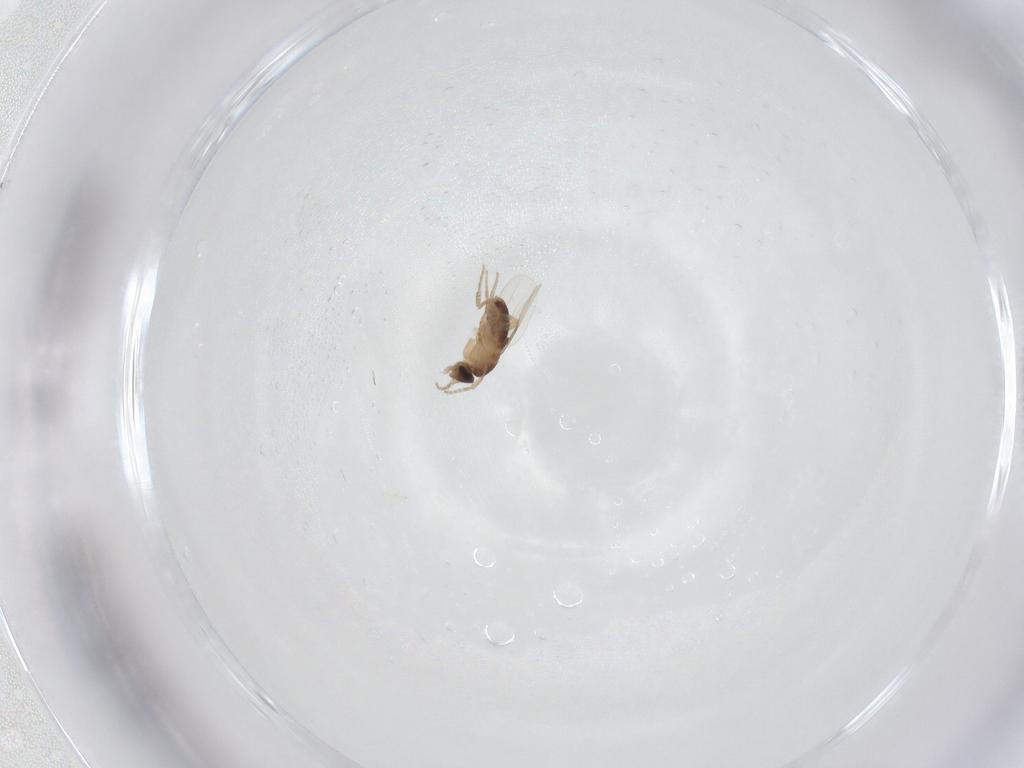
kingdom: Animalia
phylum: Arthropoda
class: Insecta
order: Diptera
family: Phoridae
